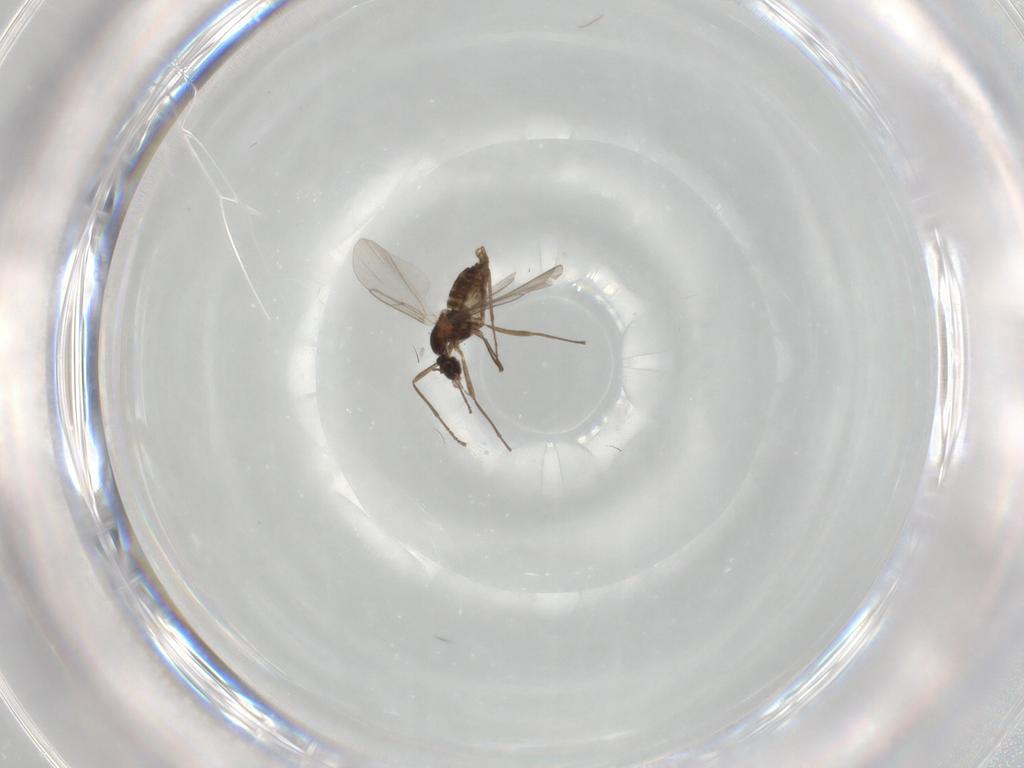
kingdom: Animalia
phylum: Arthropoda
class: Insecta
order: Diptera
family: Cecidomyiidae
